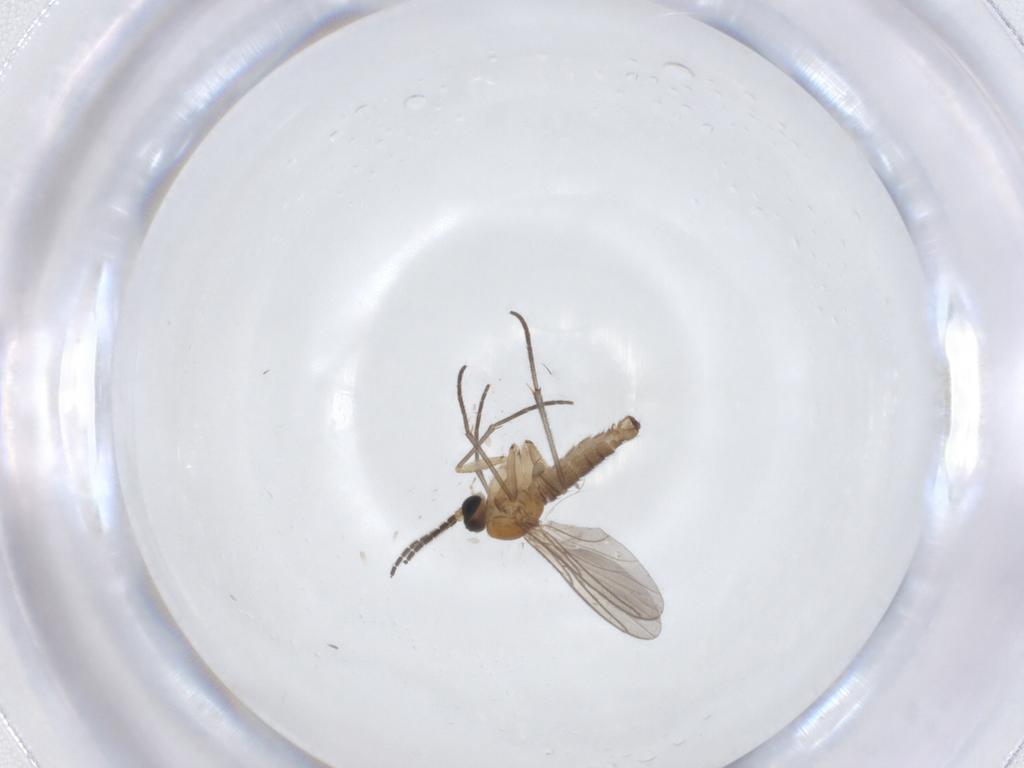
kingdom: Animalia
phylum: Arthropoda
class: Insecta
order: Diptera
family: Sciaridae
